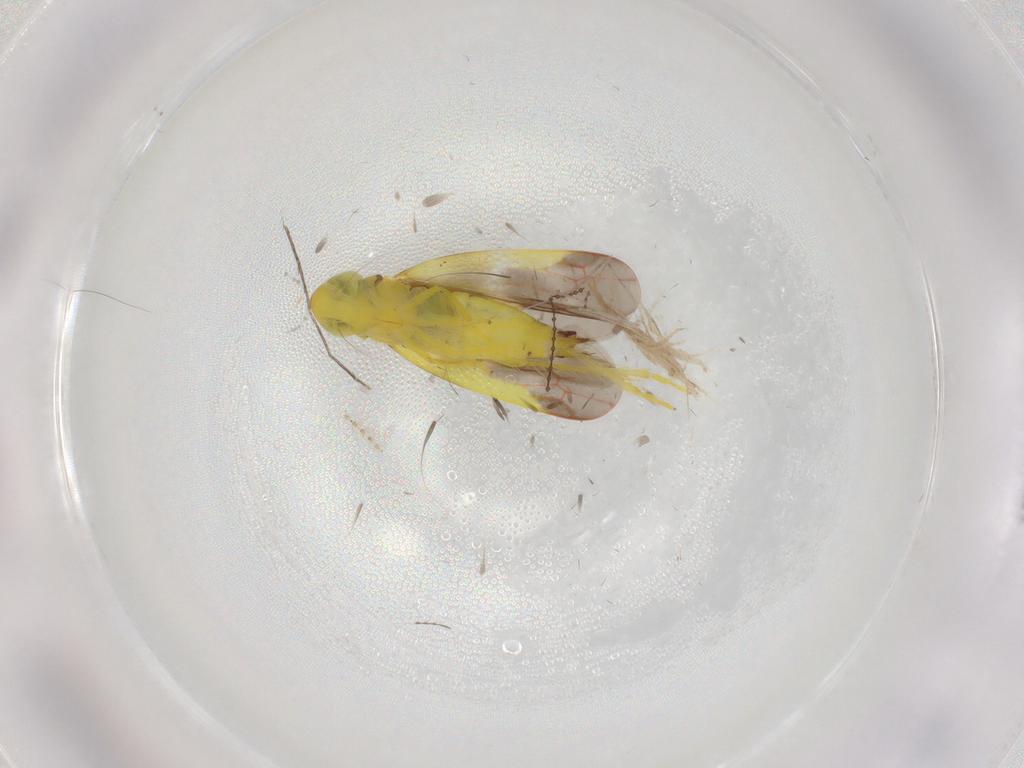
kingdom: Animalia
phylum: Arthropoda
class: Insecta
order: Hemiptera
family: Cicadellidae
